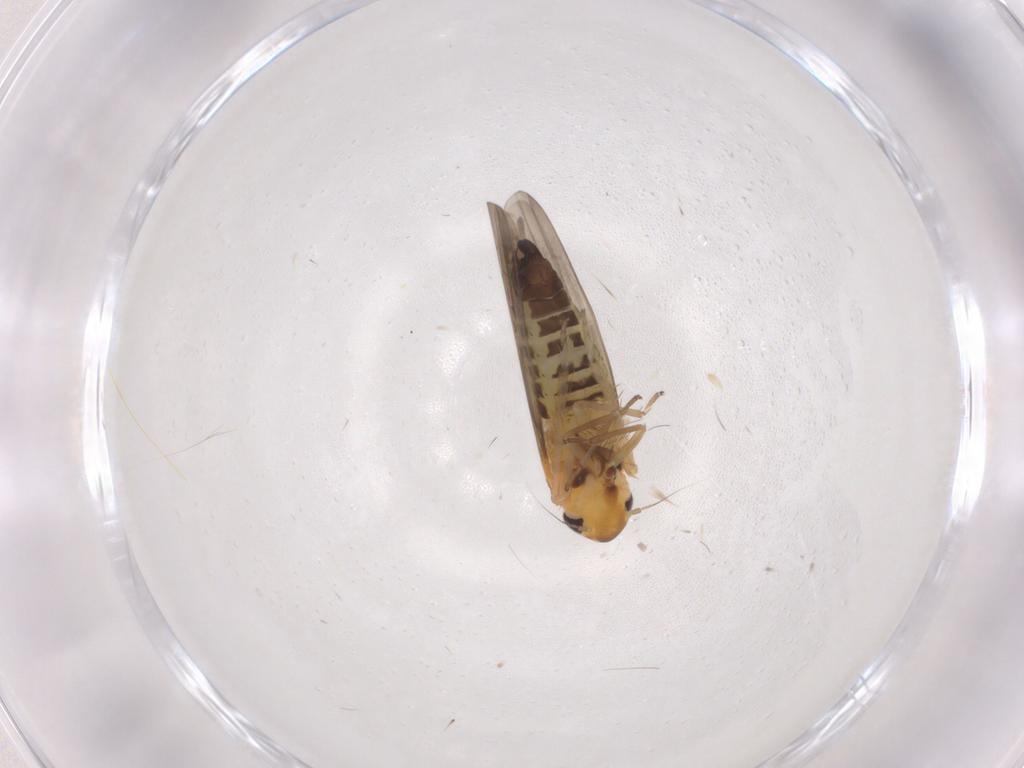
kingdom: Animalia
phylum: Arthropoda
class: Insecta
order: Hemiptera
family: Cicadellidae
